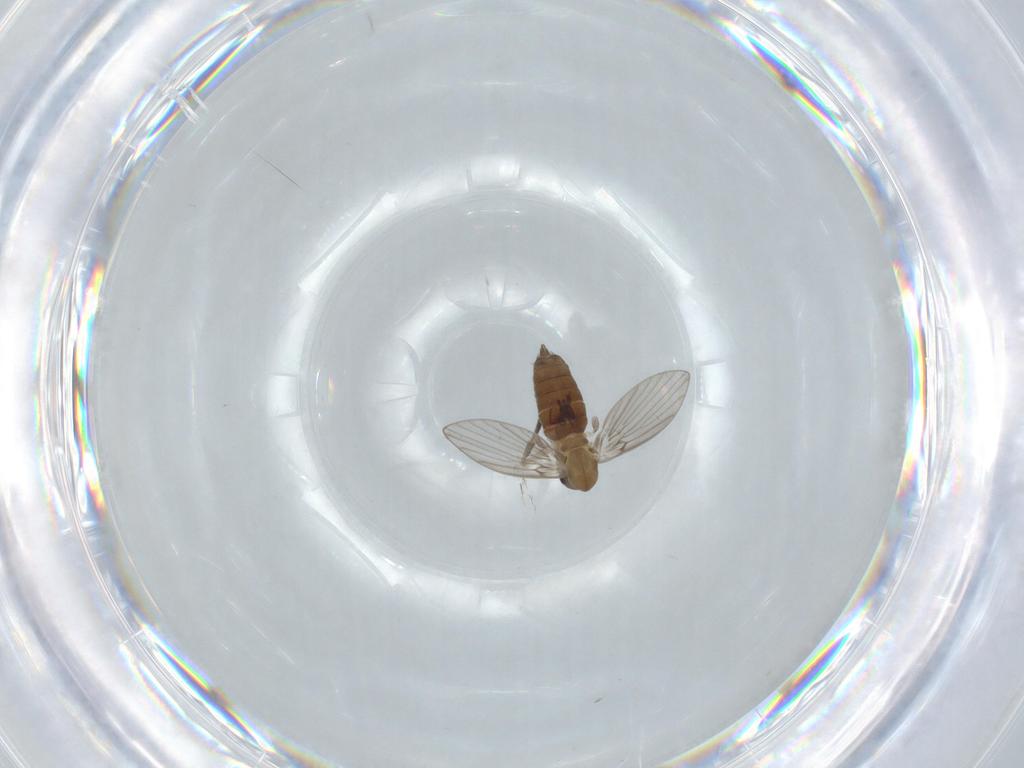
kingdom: Animalia
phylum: Arthropoda
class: Insecta
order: Diptera
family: Psychodidae
